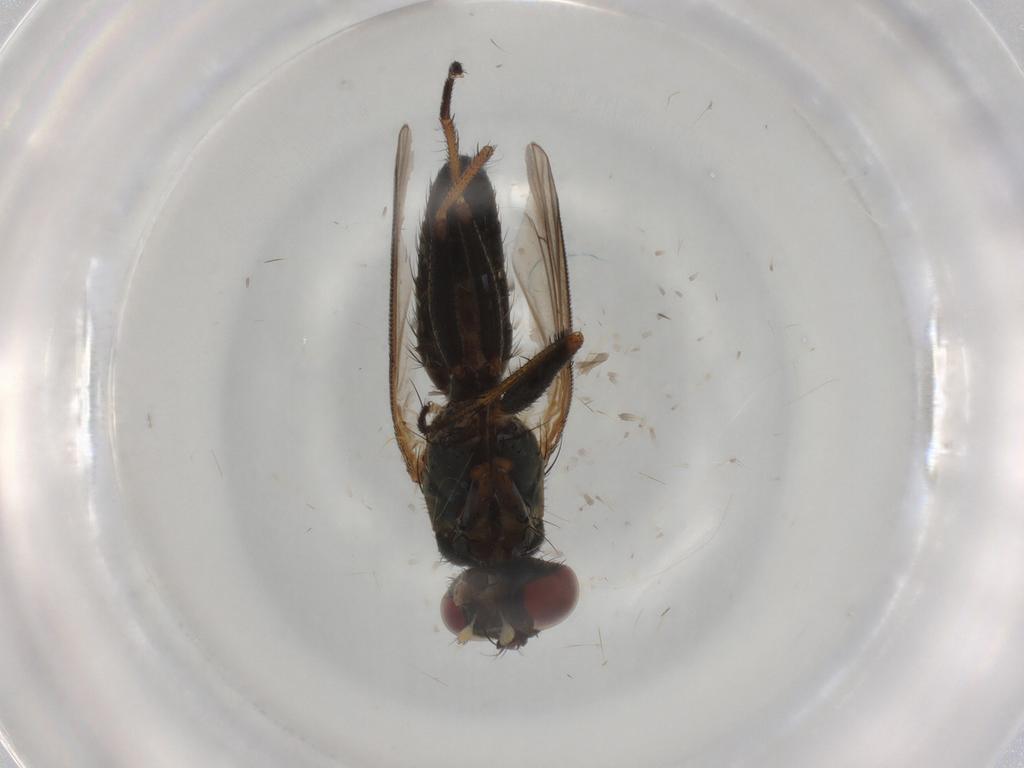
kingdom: Animalia
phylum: Arthropoda
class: Insecta
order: Diptera
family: Muscidae
